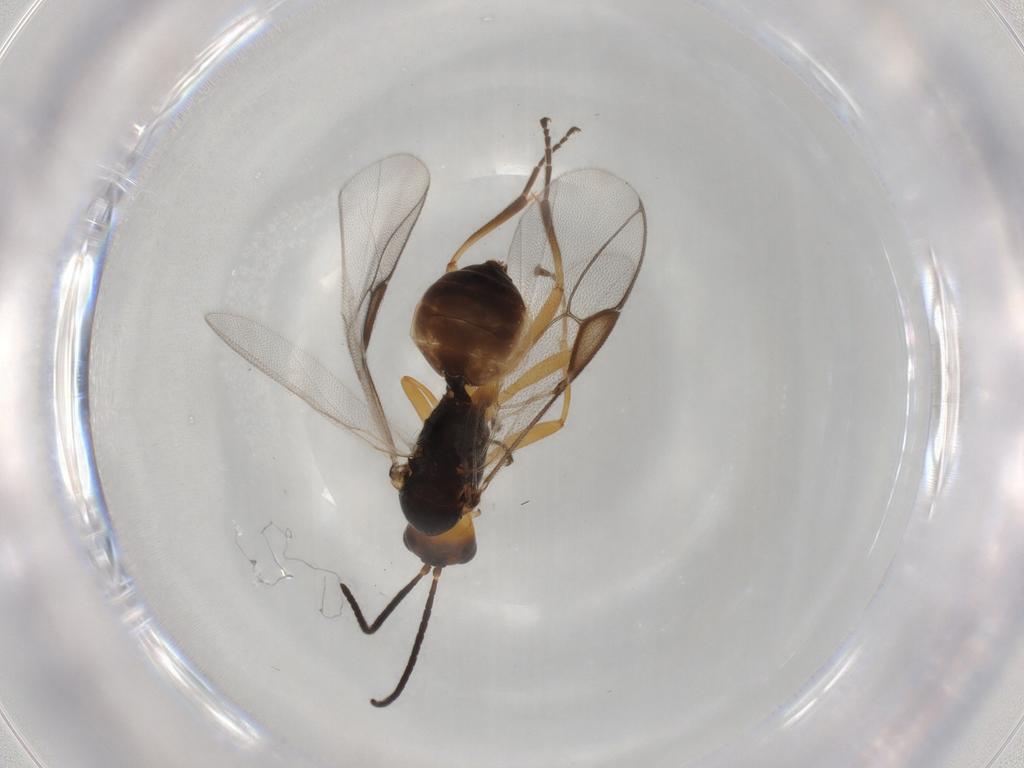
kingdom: Animalia
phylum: Arthropoda
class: Insecta
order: Hymenoptera
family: Braconidae
